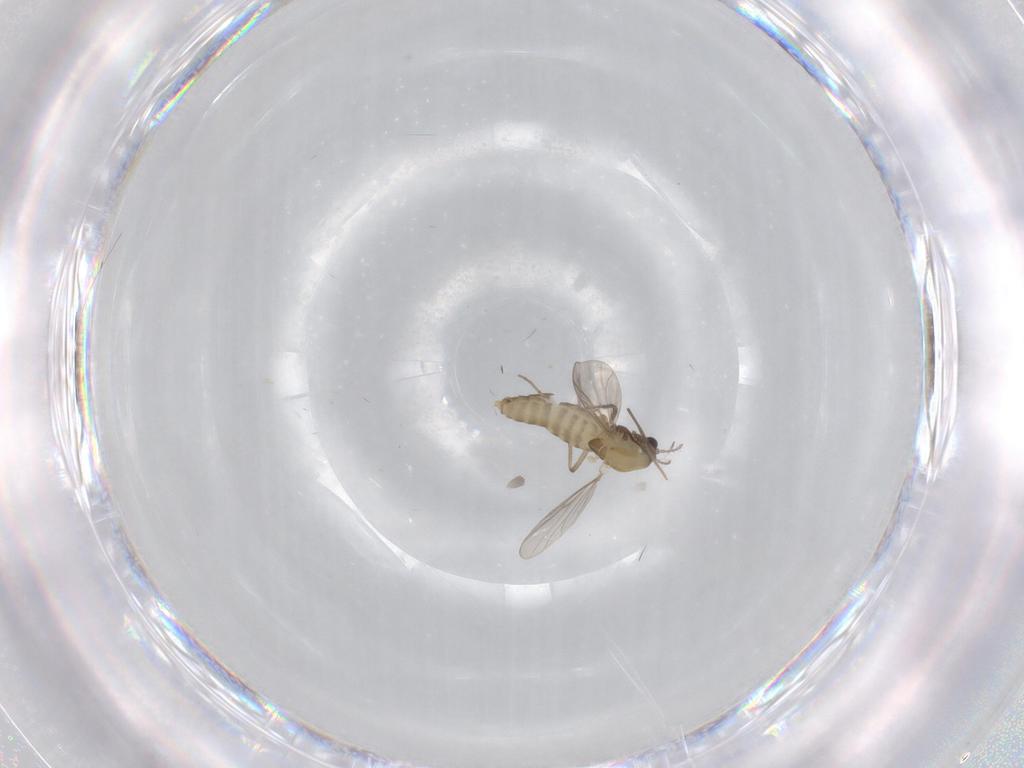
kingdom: Animalia
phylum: Arthropoda
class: Insecta
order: Diptera
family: Chironomidae
